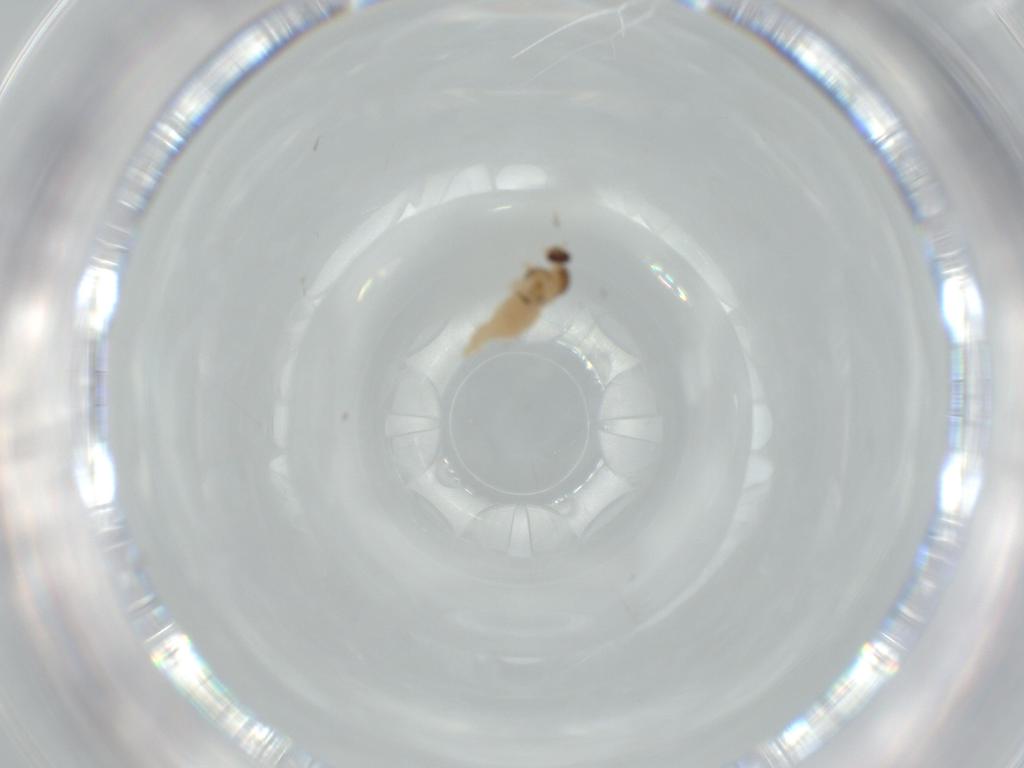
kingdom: Animalia
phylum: Arthropoda
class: Insecta
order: Diptera
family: Cecidomyiidae
